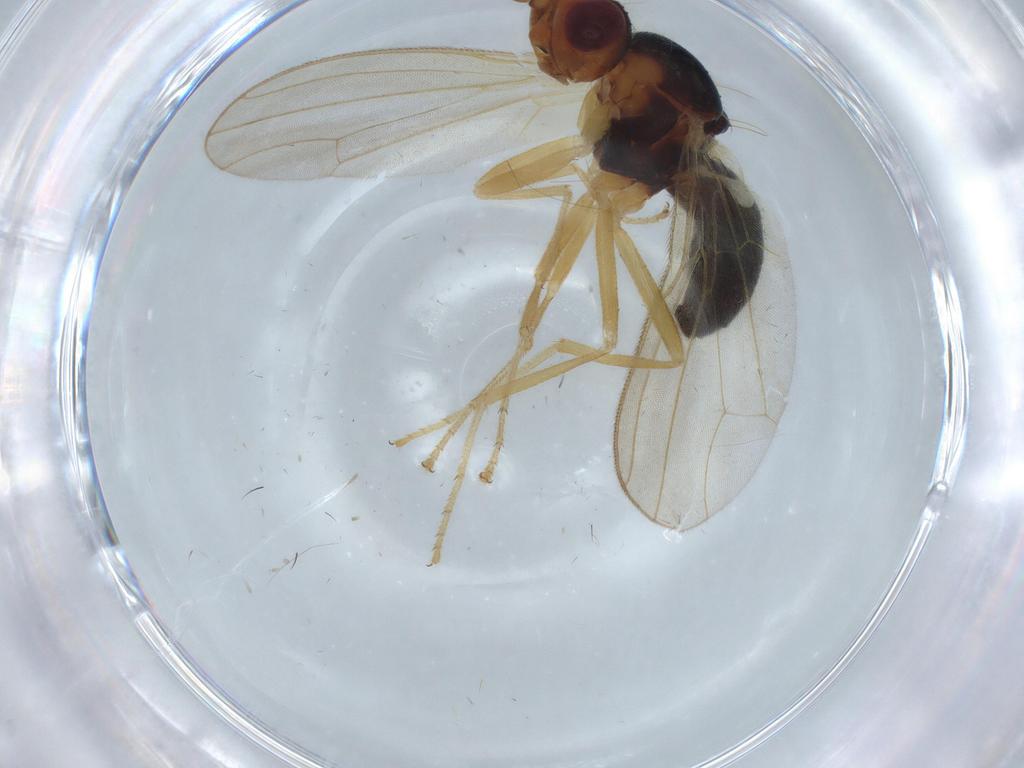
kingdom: Animalia
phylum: Arthropoda
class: Insecta
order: Diptera
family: Psilidae
